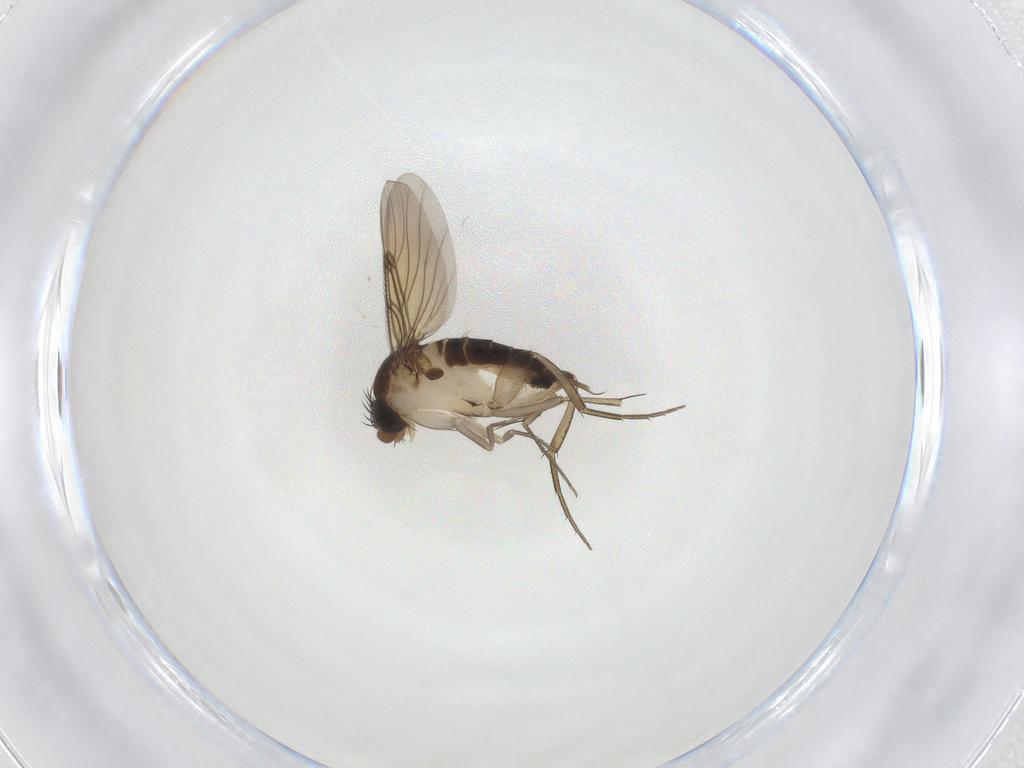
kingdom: Animalia
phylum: Arthropoda
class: Insecta
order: Diptera
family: Phoridae
